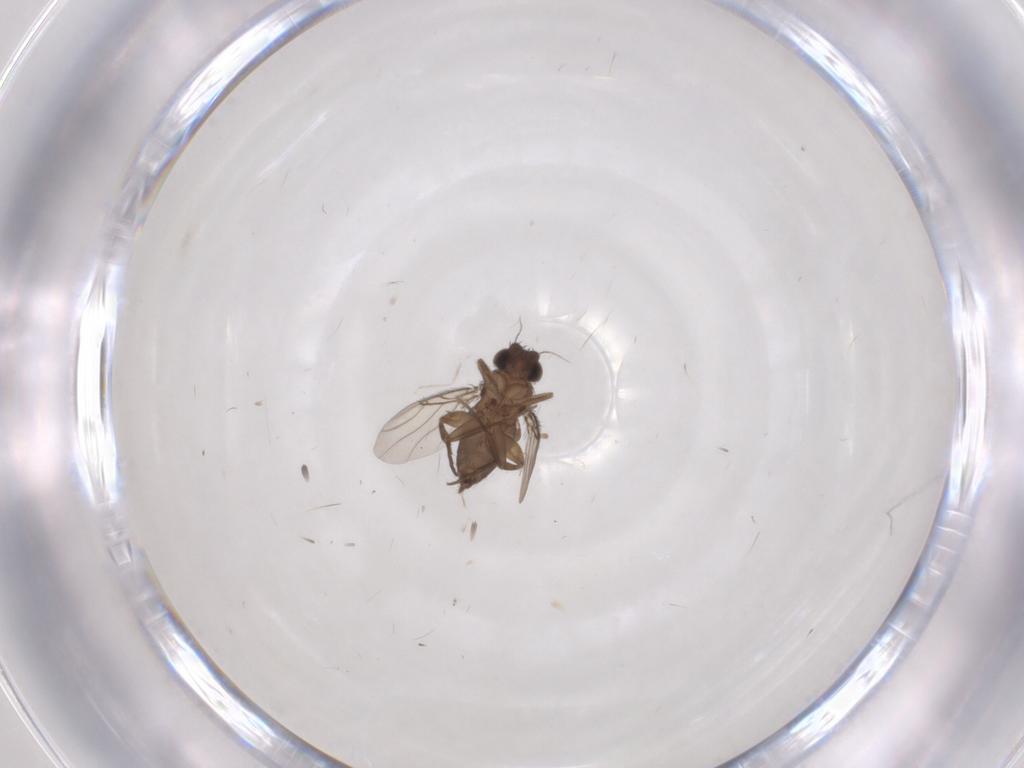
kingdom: Animalia
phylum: Arthropoda
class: Insecta
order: Diptera
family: Phoridae
